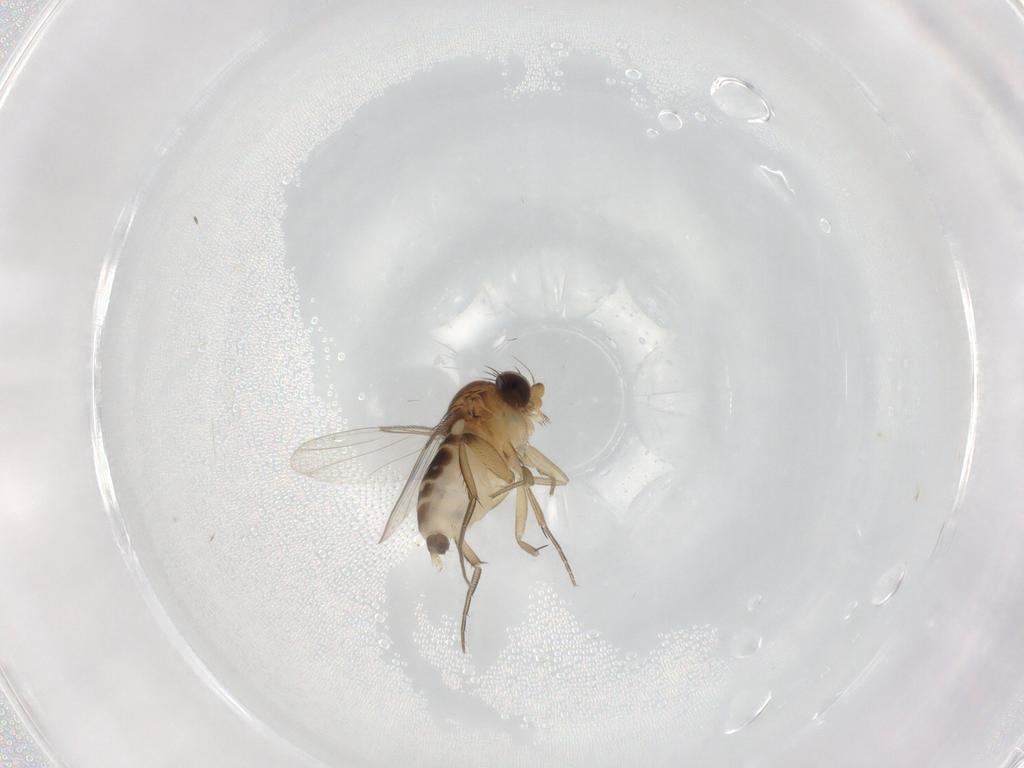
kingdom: Animalia
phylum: Arthropoda
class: Insecta
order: Diptera
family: Phoridae
